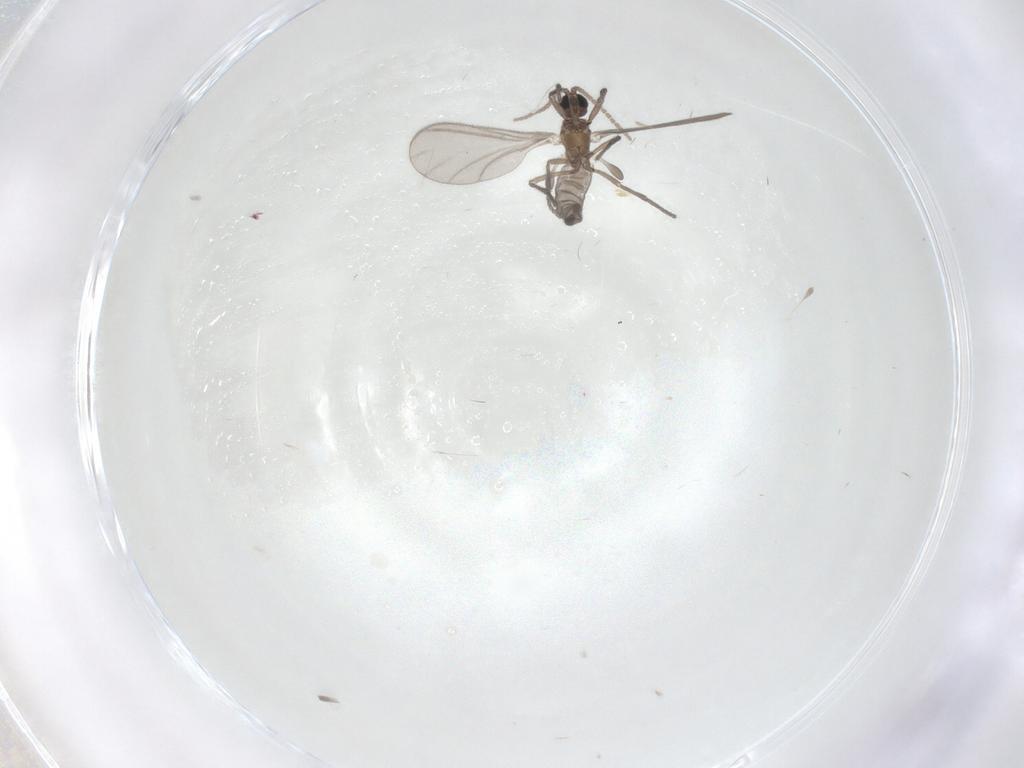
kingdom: Animalia
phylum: Arthropoda
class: Insecta
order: Diptera
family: Sciaridae
